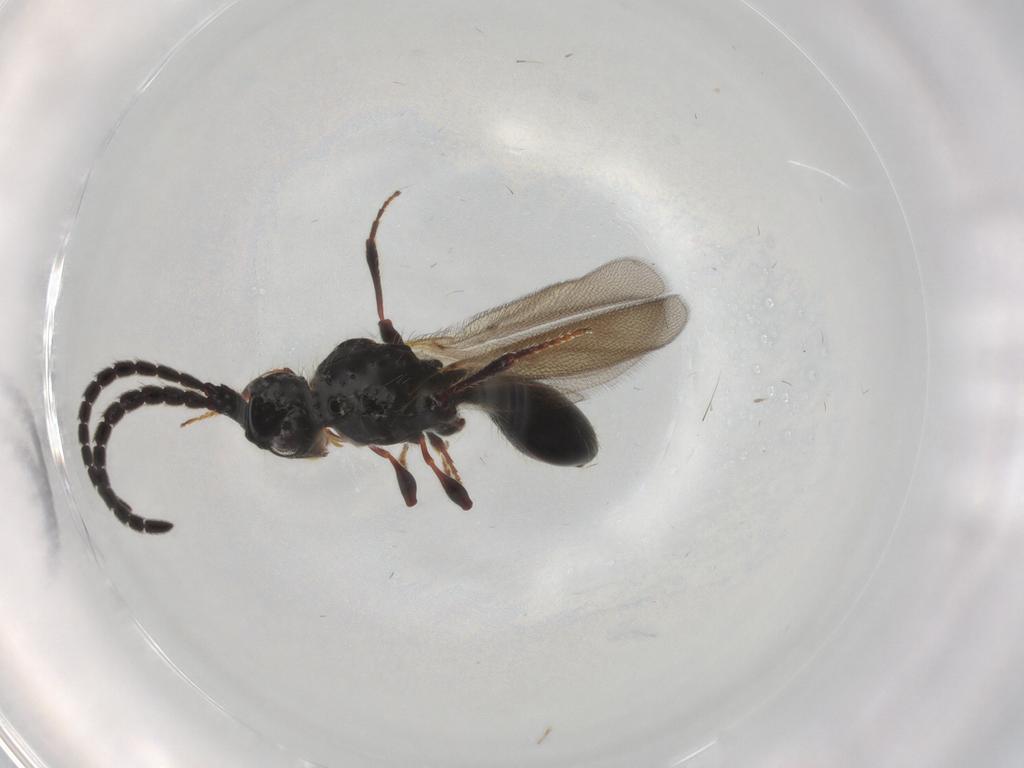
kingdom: Animalia
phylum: Arthropoda
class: Insecta
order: Hymenoptera
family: Diapriidae
